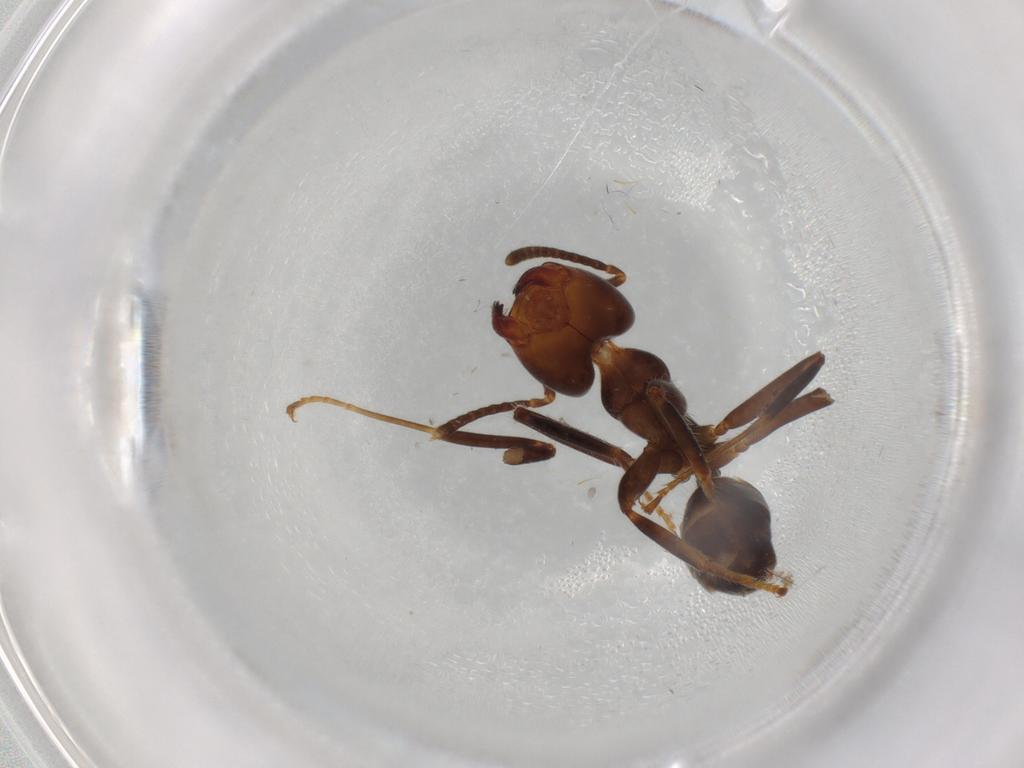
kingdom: Animalia
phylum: Arthropoda
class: Insecta
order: Hymenoptera
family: Formicidae
